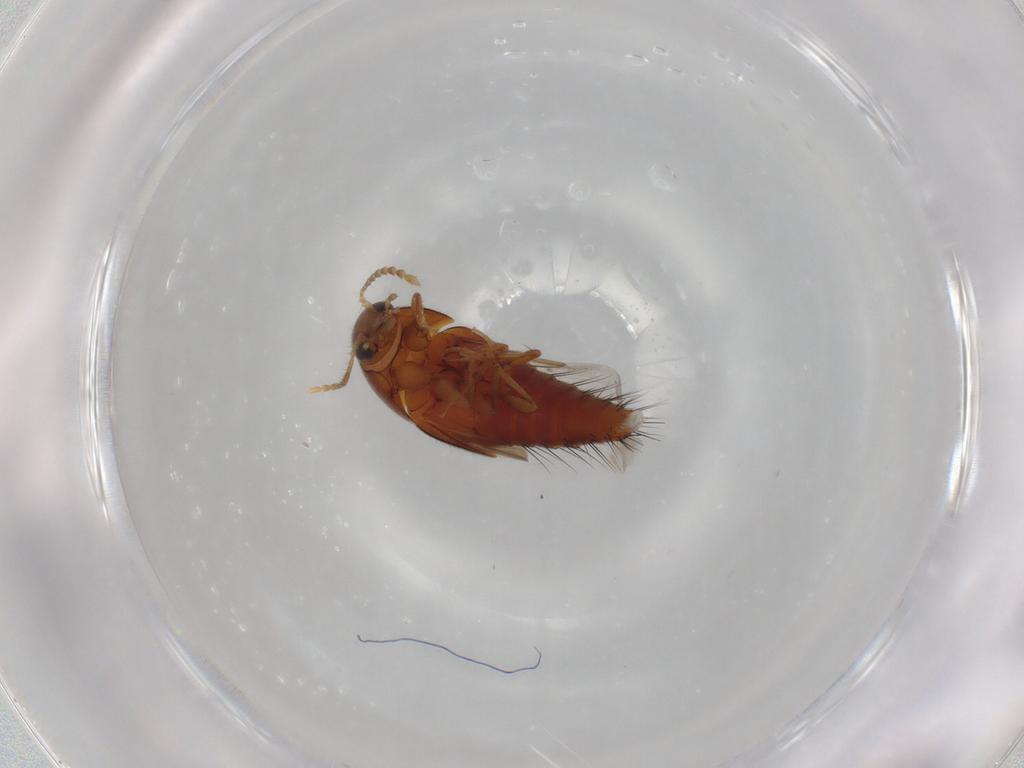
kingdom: Animalia
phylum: Arthropoda
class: Insecta
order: Coleoptera
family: Staphylinidae
